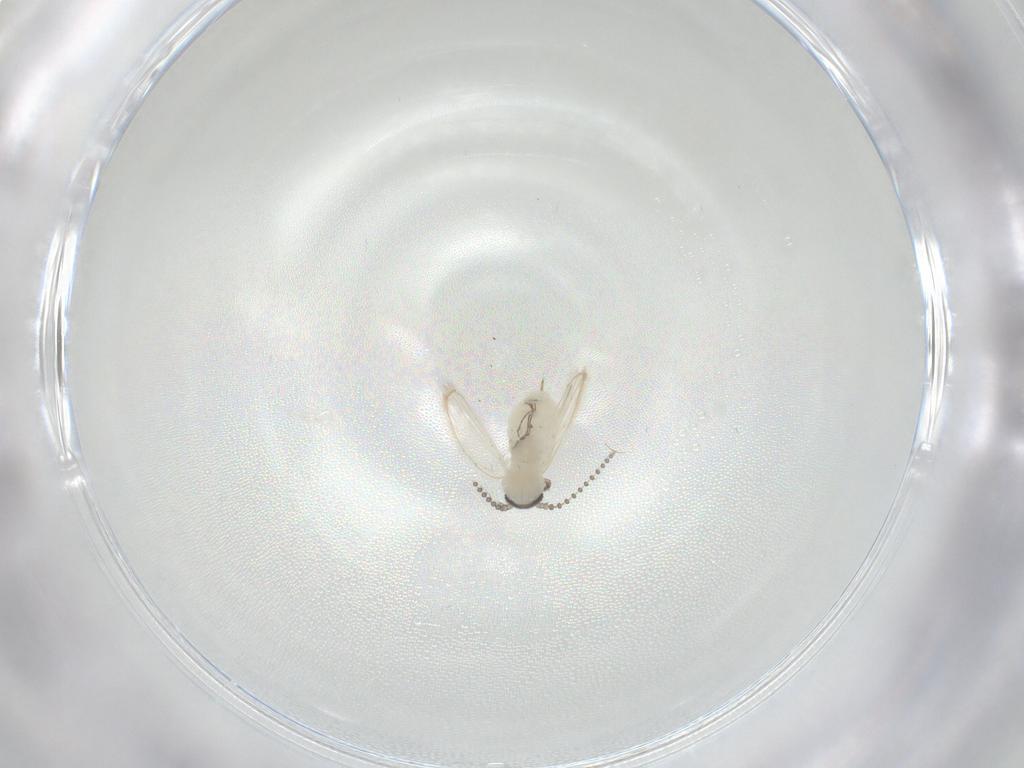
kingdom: Animalia
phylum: Arthropoda
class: Insecta
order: Diptera
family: Psychodidae
